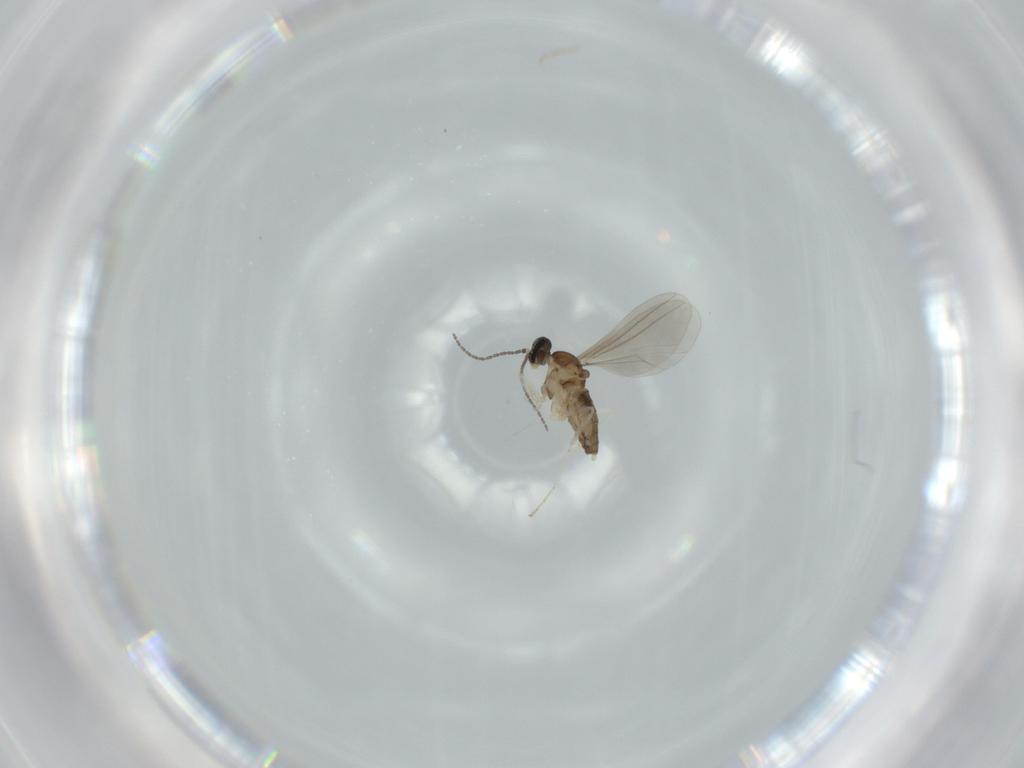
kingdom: Animalia
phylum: Arthropoda
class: Insecta
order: Diptera
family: Cecidomyiidae
